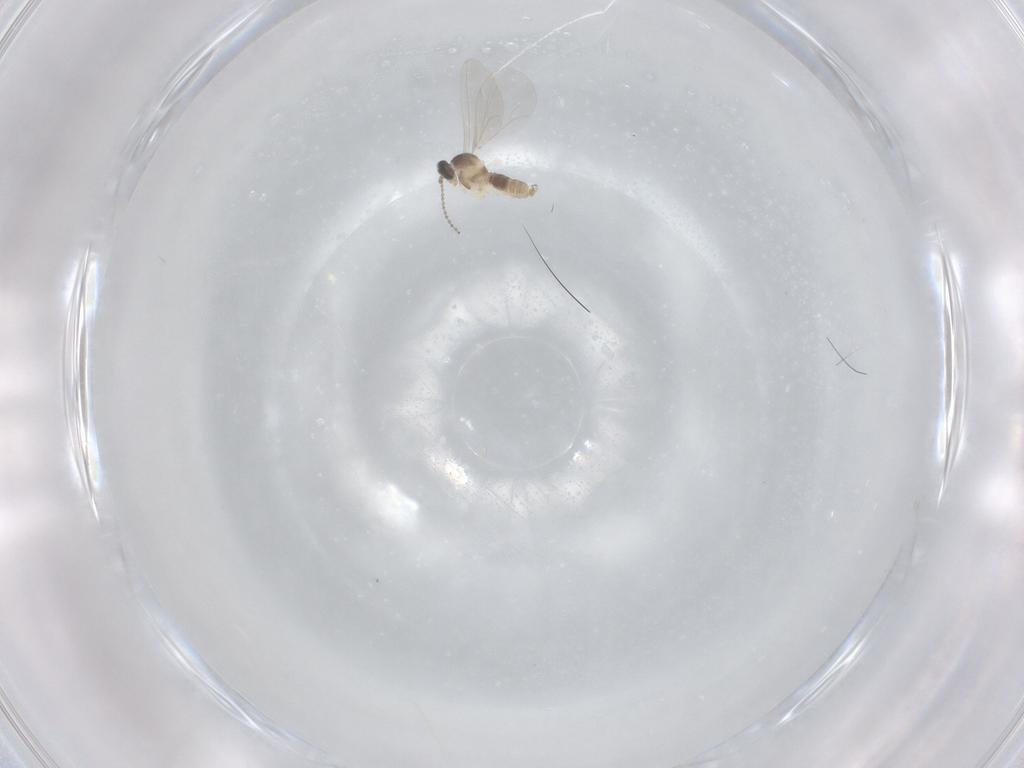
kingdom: Animalia
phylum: Arthropoda
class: Insecta
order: Diptera
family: Cecidomyiidae
